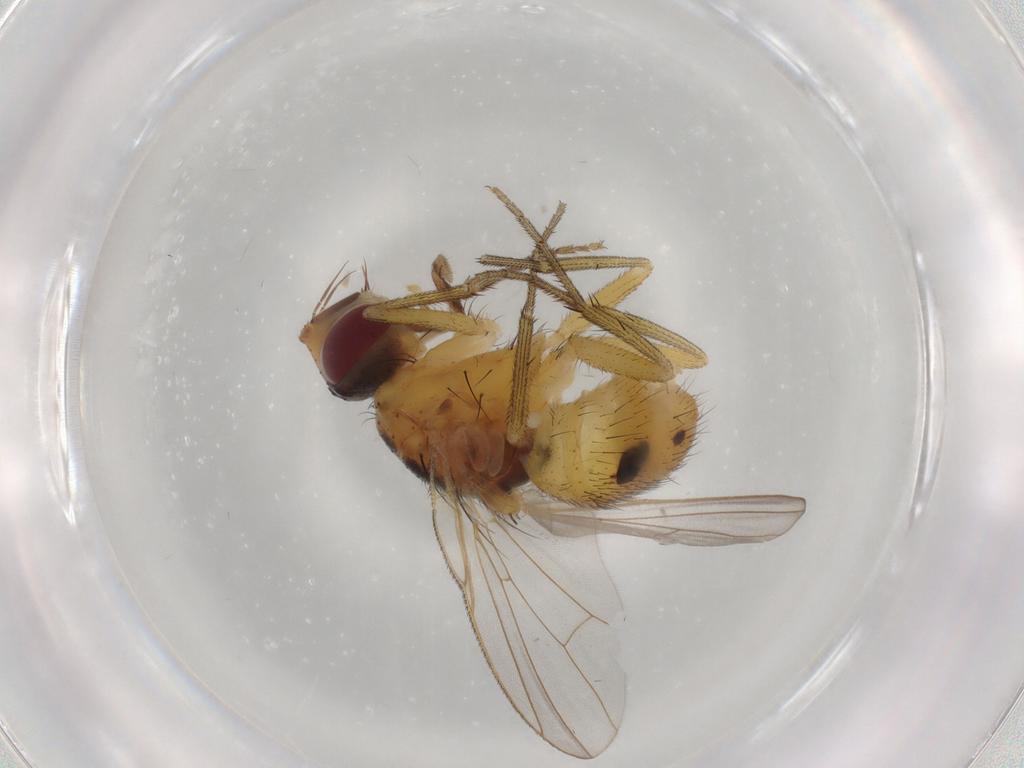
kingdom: Animalia
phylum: Arthropoda
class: Insecta
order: Diptera
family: Muscidae
